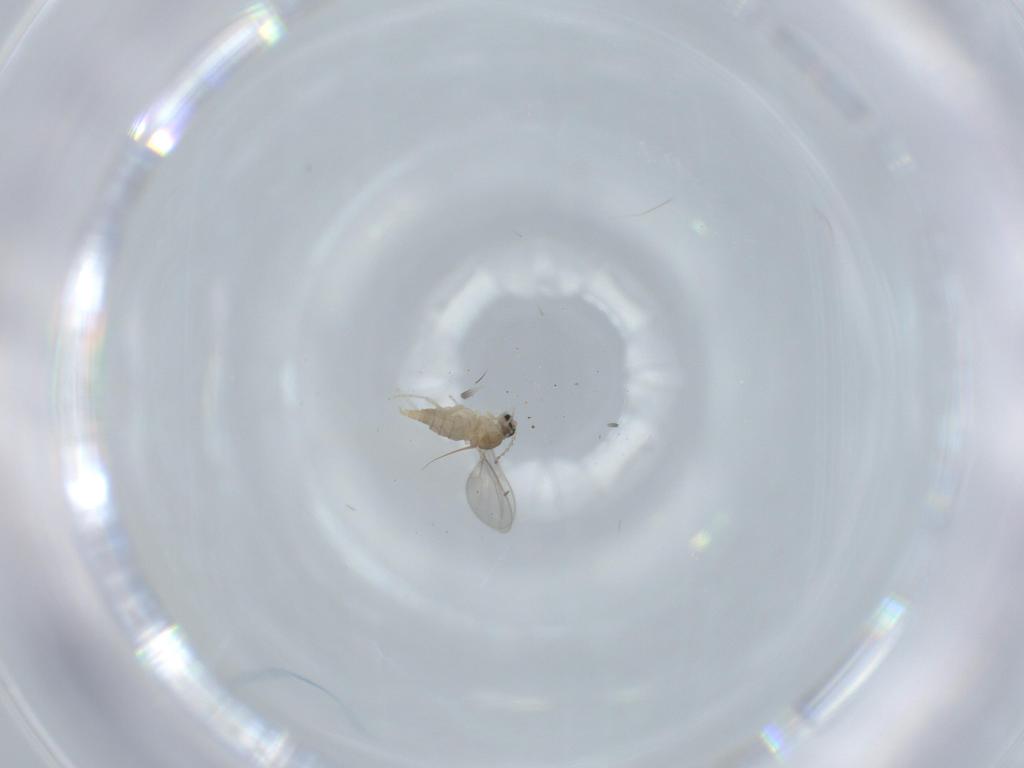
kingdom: Animalia
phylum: Arthropoda
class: Insecta
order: Diptera
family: Cecidomyiidae
